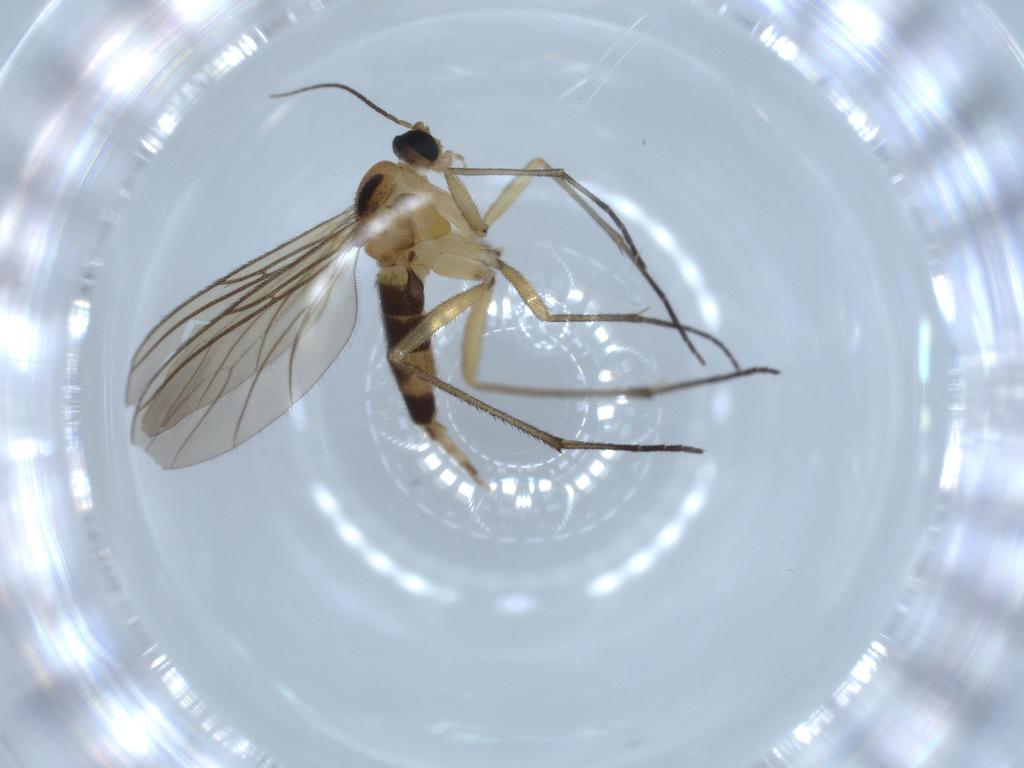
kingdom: Animalia
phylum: Arthropoda
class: Insecta
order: Diptera
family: Sciaridae
